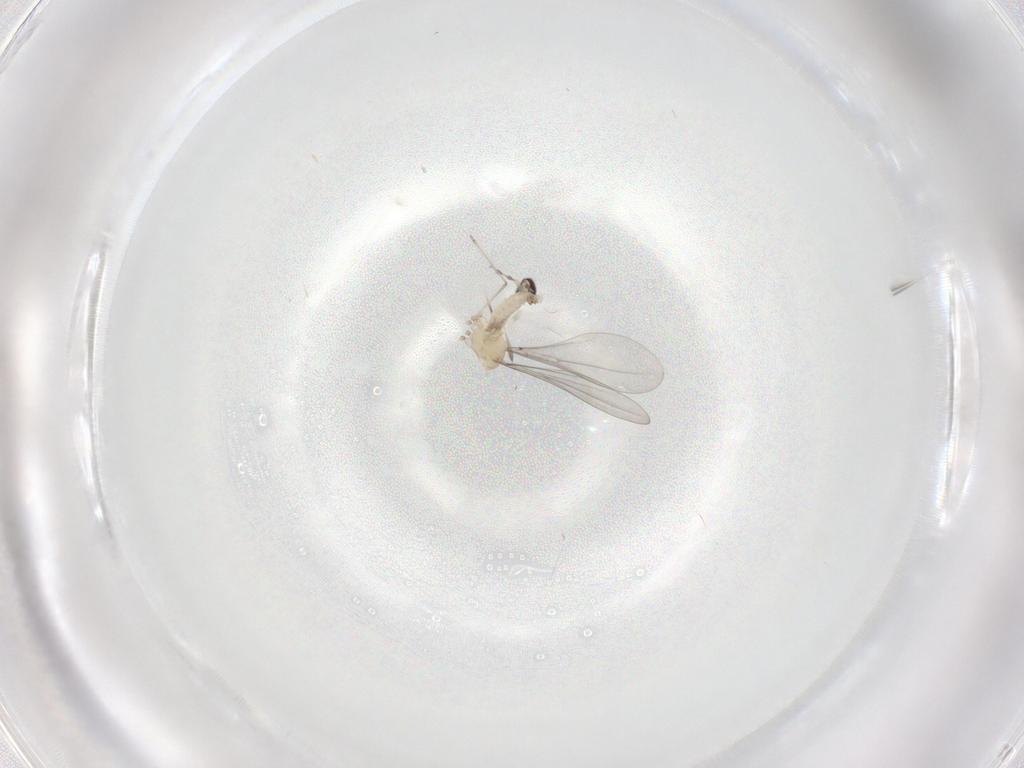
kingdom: Animalia
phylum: Arthropoda
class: Insecta
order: Diptera
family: Cecidomyiidae
